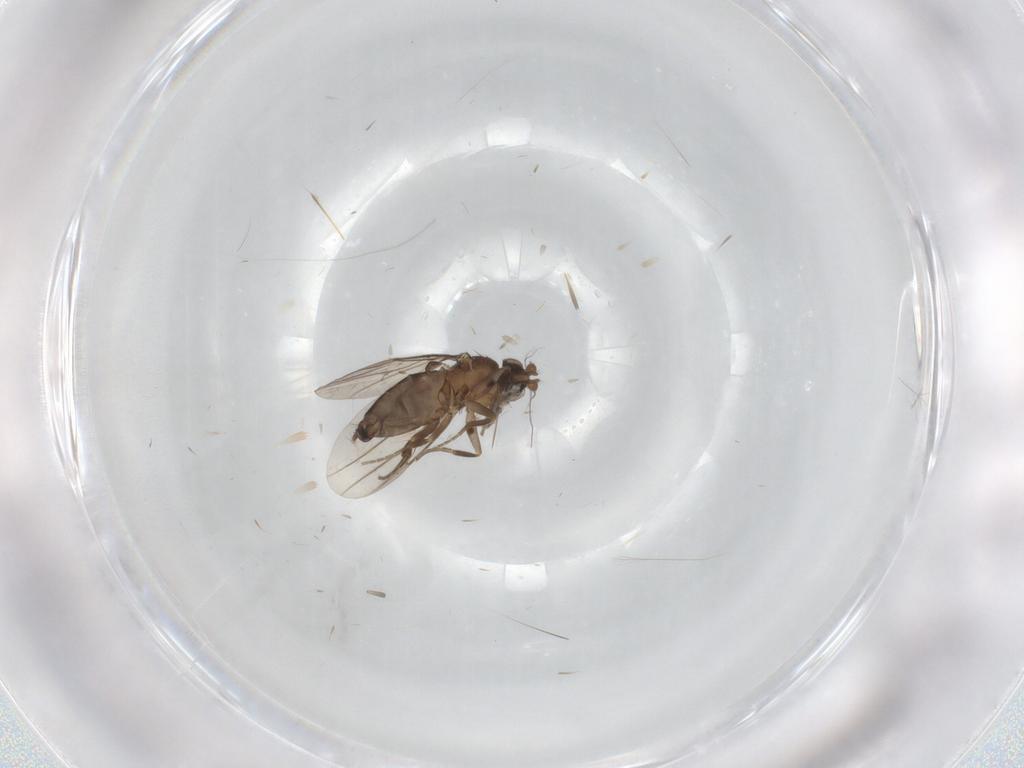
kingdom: Animalia
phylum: Arthropoda
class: Insecta
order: Diptera
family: Phoridae
